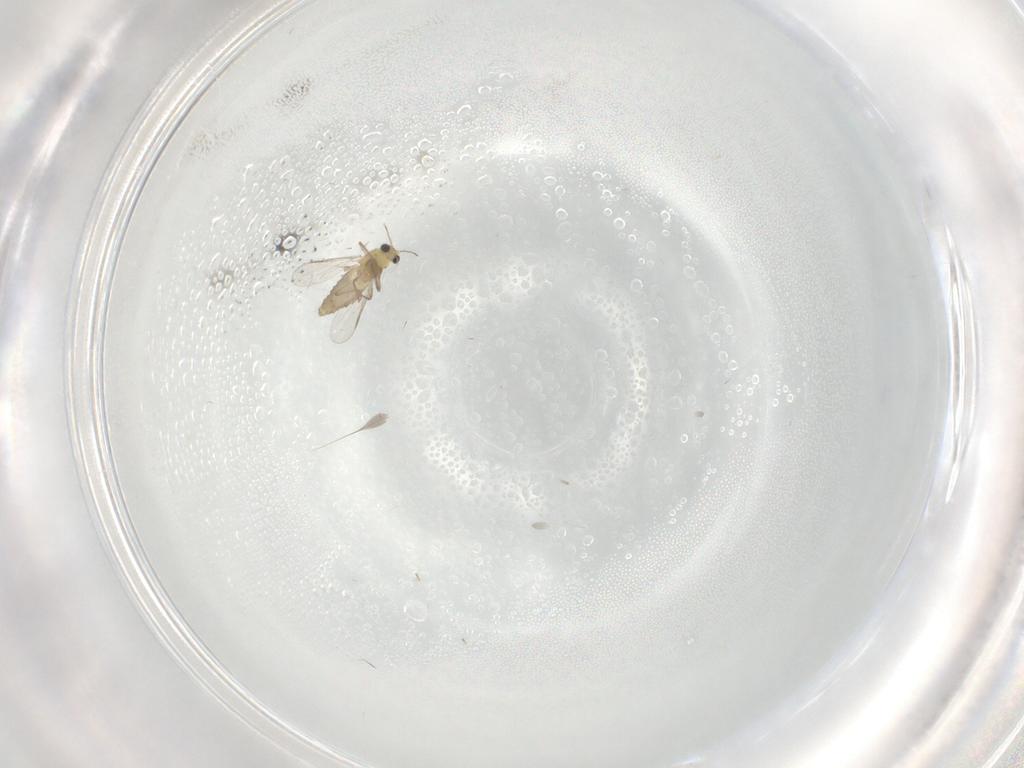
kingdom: Animalia
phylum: Arthropoda
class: Insecta
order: Diptera
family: Chironomidae
